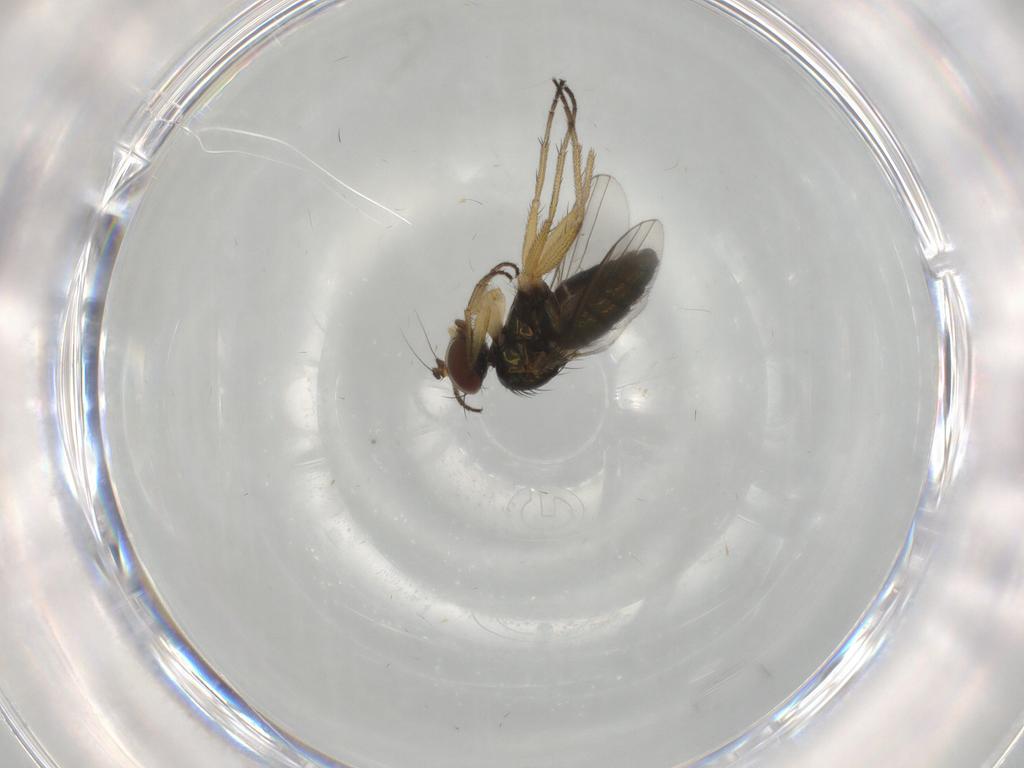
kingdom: Animalia
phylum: Arthropoda
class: Insecta
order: Diptera
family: Dolichopodidae
